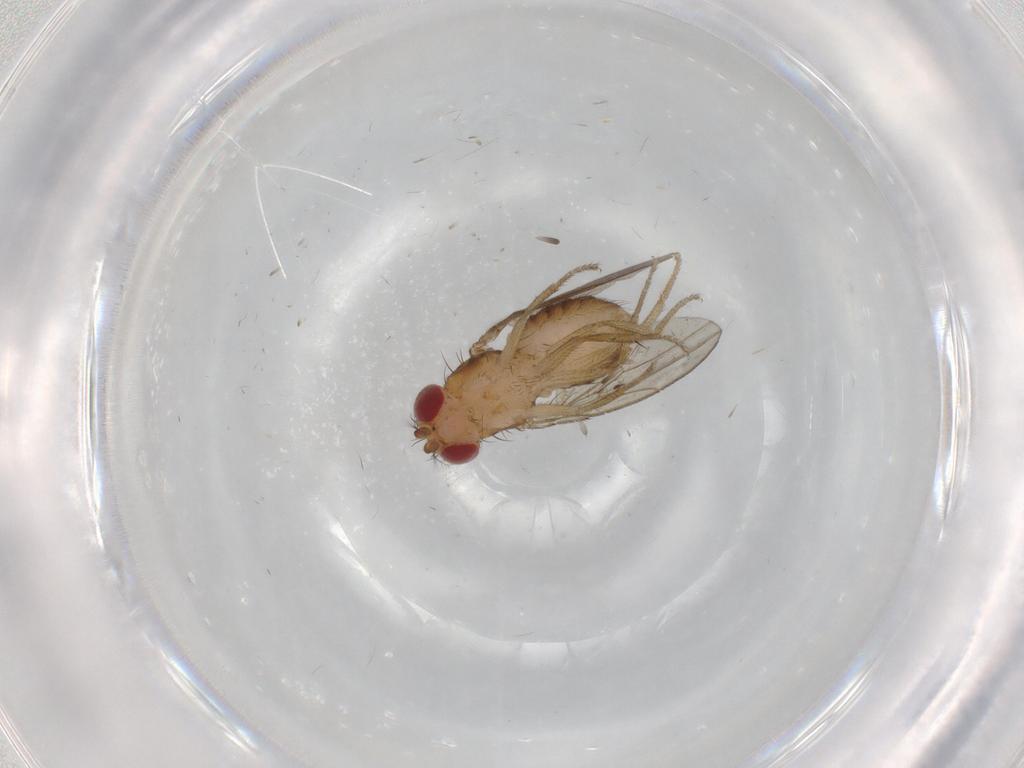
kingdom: Animalia
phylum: Arthropoda
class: Insecta
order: Diptera
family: Drosophilidae
